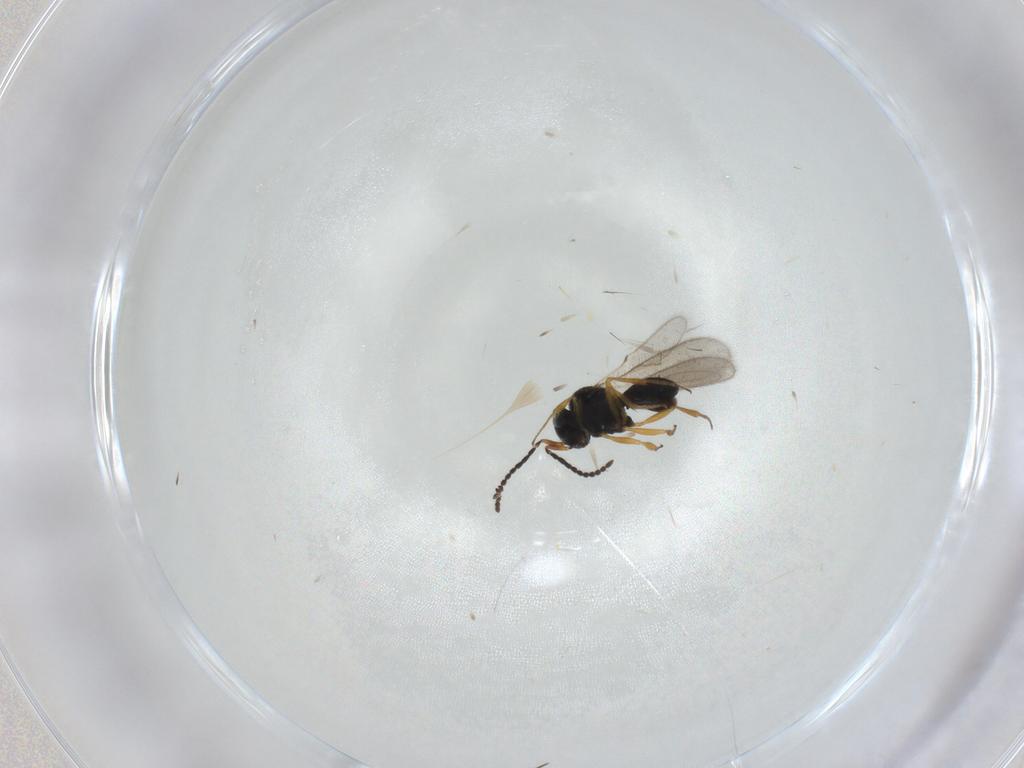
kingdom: Animalia
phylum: Arthropoda
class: Insecta
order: Hymenoptera
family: Scelionidae
